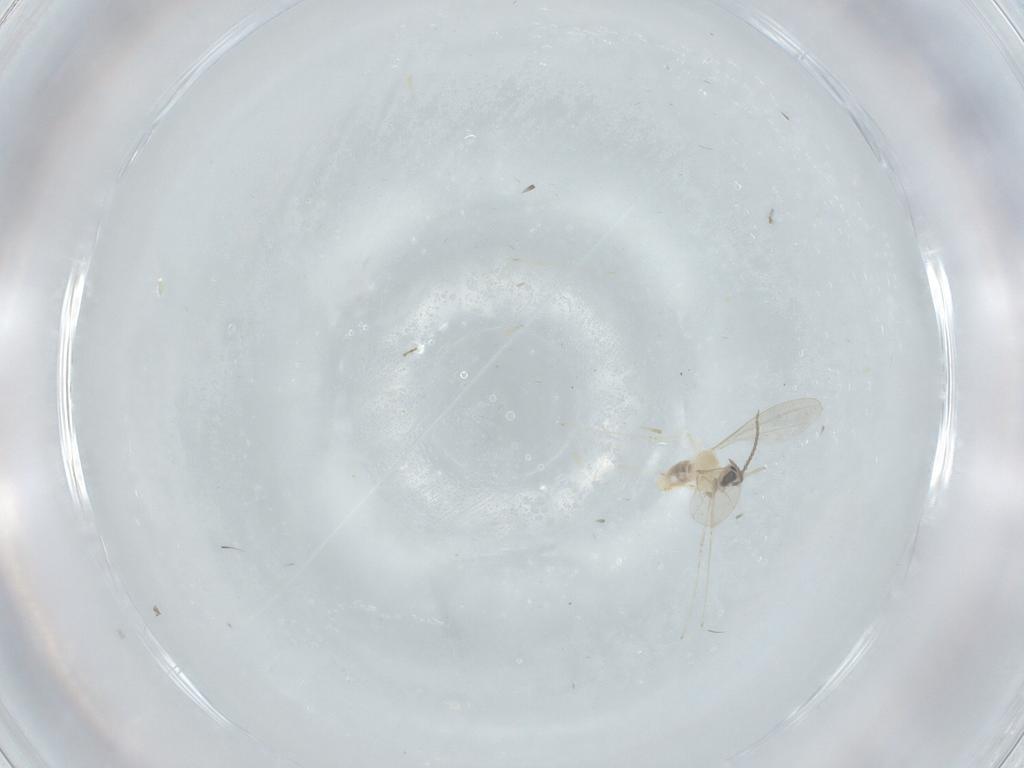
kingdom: Animalia
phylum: Arthropoda
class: Insecta
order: Diptera
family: Cecidomyiidae
